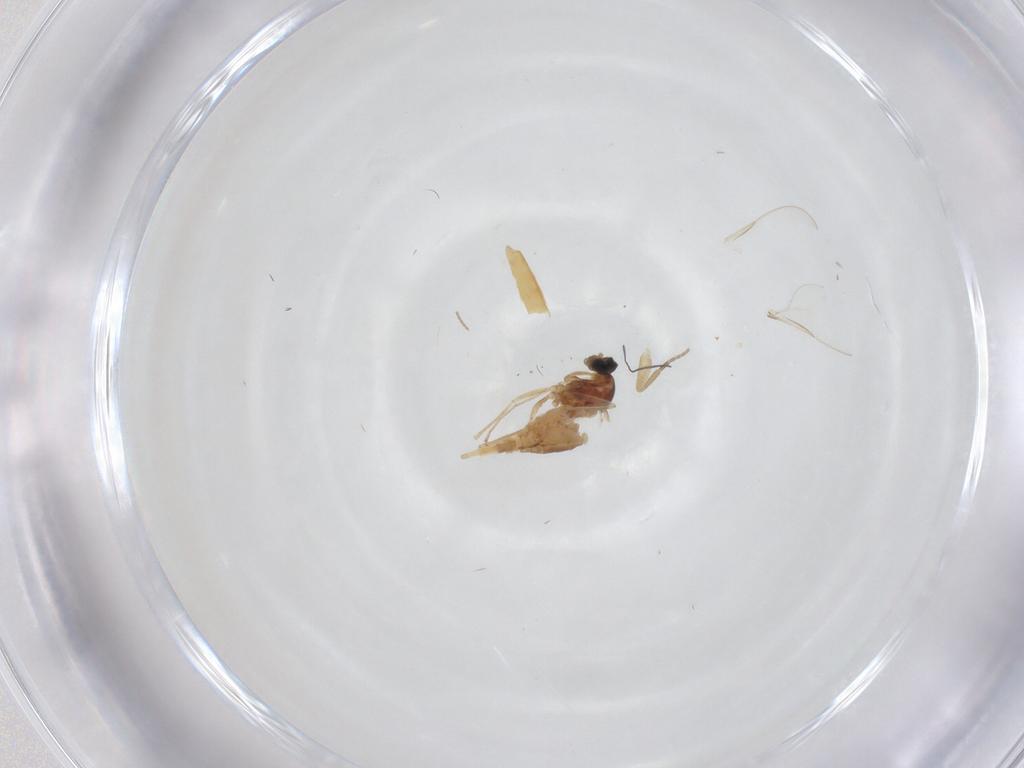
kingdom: Animalia
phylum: Arthropoda
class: Insecta
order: Diptera
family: Cecidomyiidae
